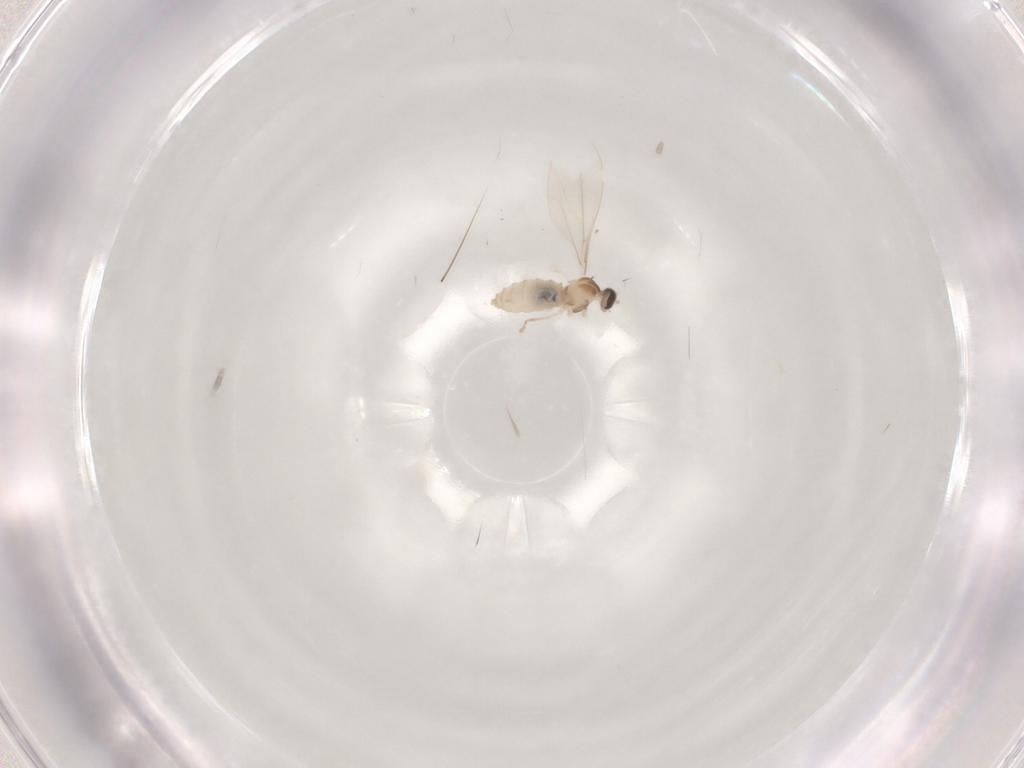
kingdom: Animalia
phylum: Arthropoda
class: Insecta
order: Diptera
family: Cecidomyiidae
